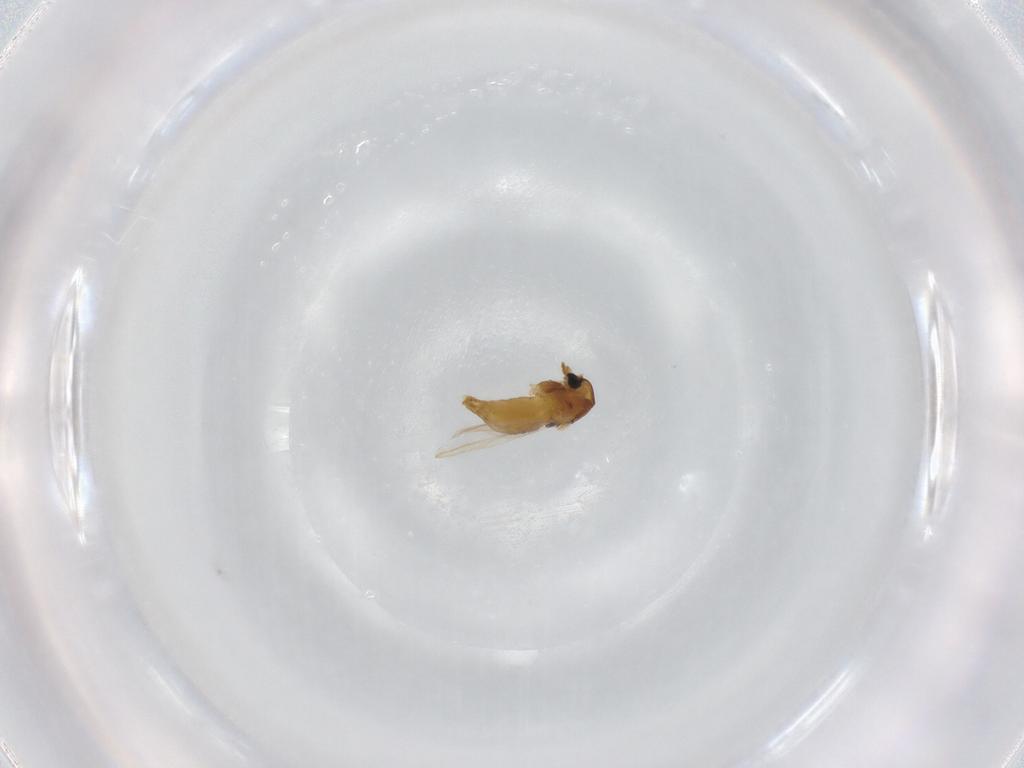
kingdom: Animalia
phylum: Arthropoda
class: Insecta
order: Diptera
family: Chironomidae
